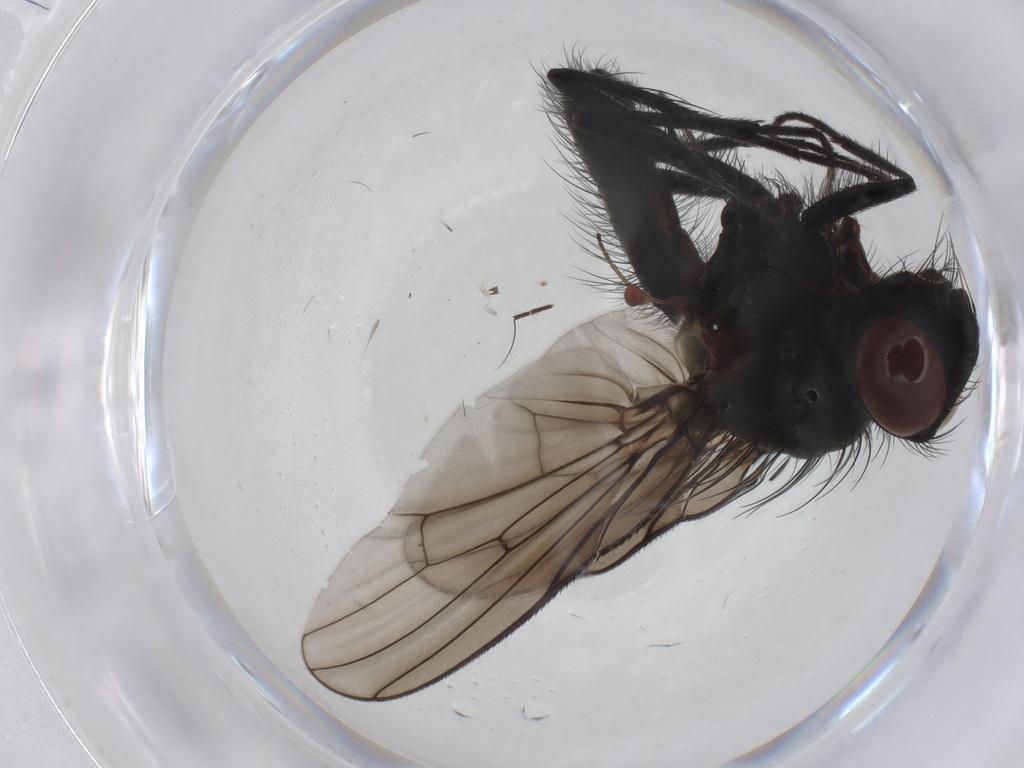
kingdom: Animalia
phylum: Arthropoda
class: Insecta
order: Diptera
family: Anthomyiidae
